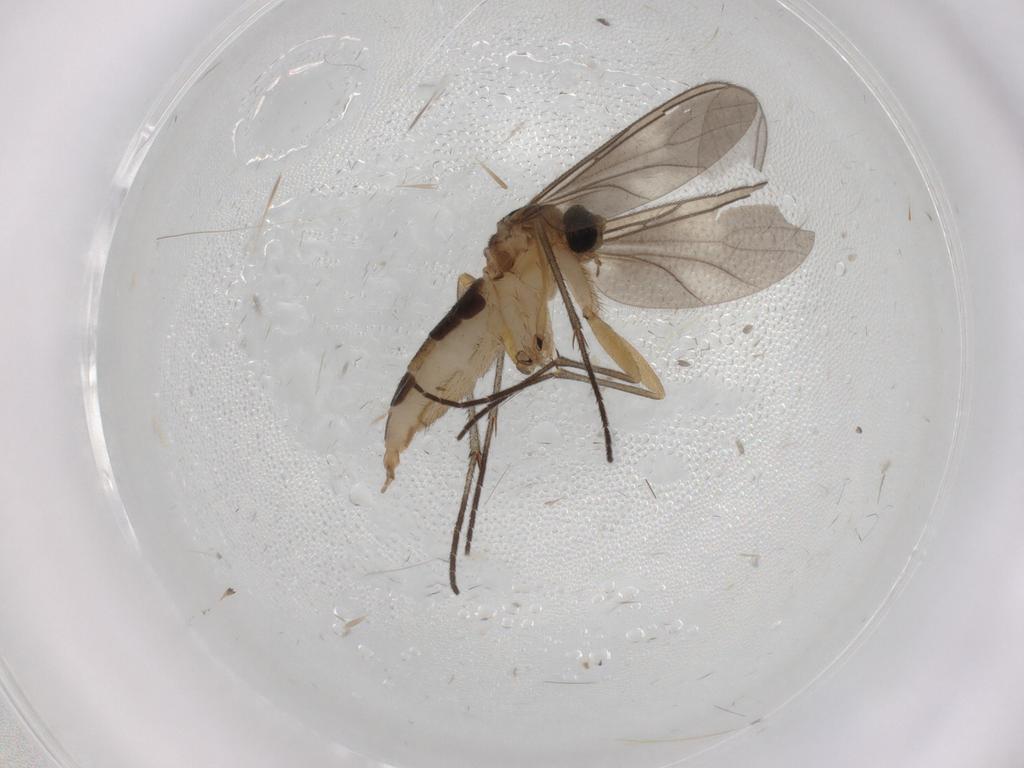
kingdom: Animalia
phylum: Arthropoda
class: Insecta
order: Diptera
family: Sciaridae
